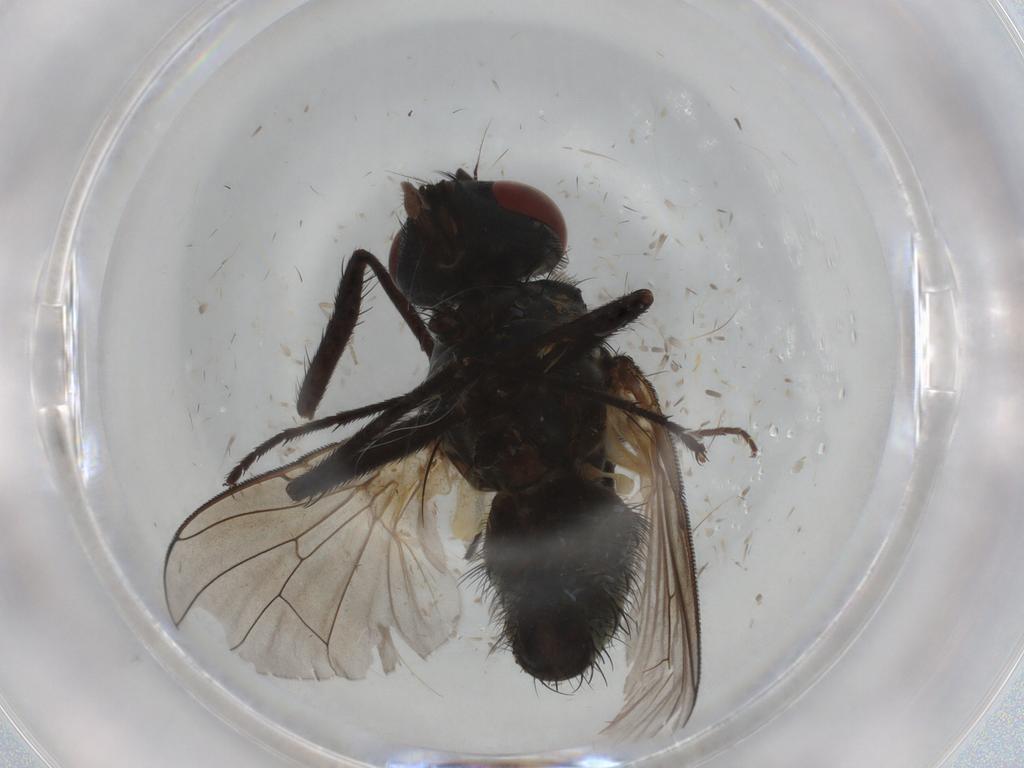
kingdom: Animalia
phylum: Arthropoda
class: Insecta
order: Diptera
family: Muscidae
